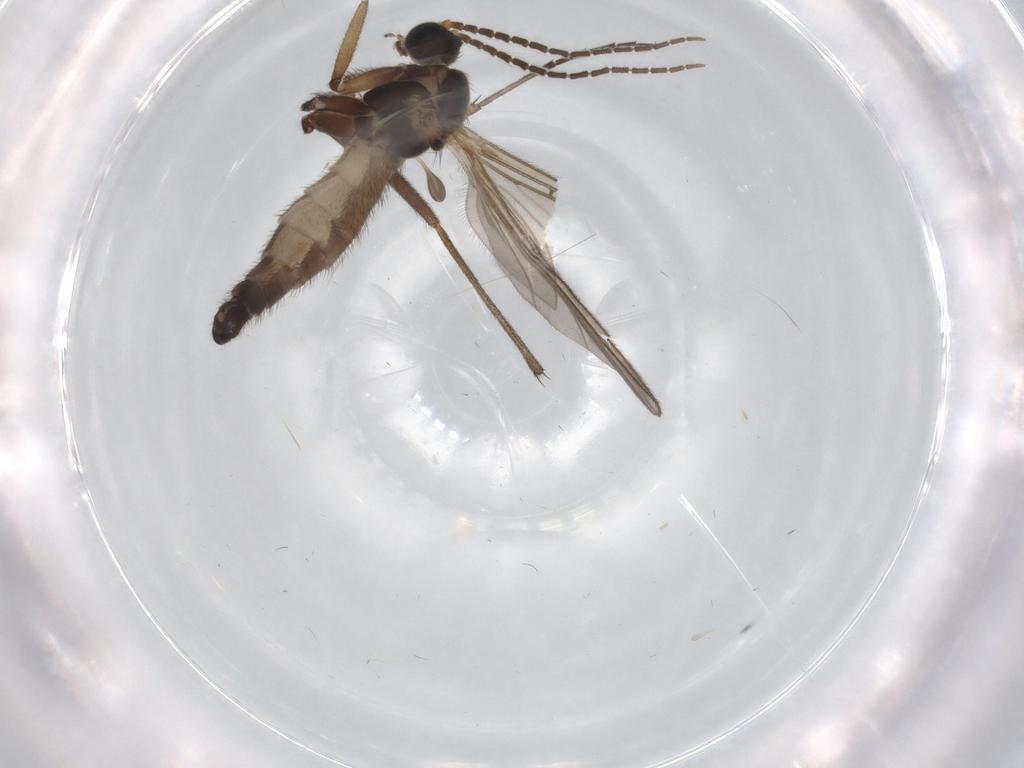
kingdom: Animalia
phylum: Arthropoda
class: Insecta
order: Diptera
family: Sciaridae
